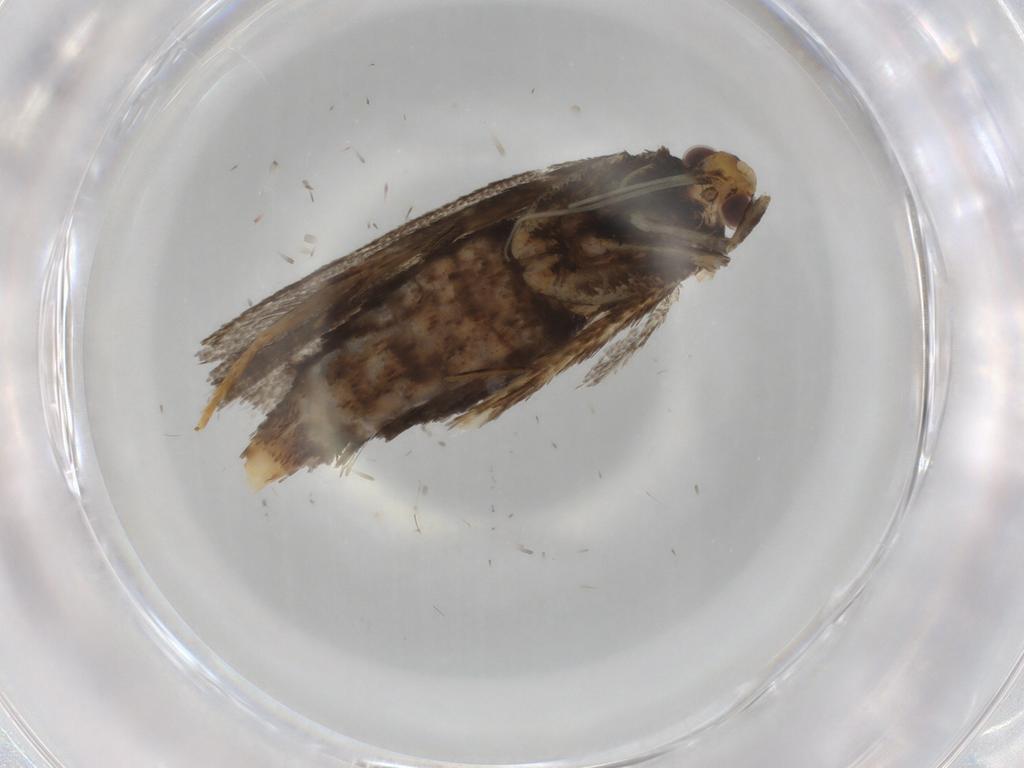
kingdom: Animalia
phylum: Arthropoda
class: Insecta
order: Lepidoptera
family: Lecithoceridae
